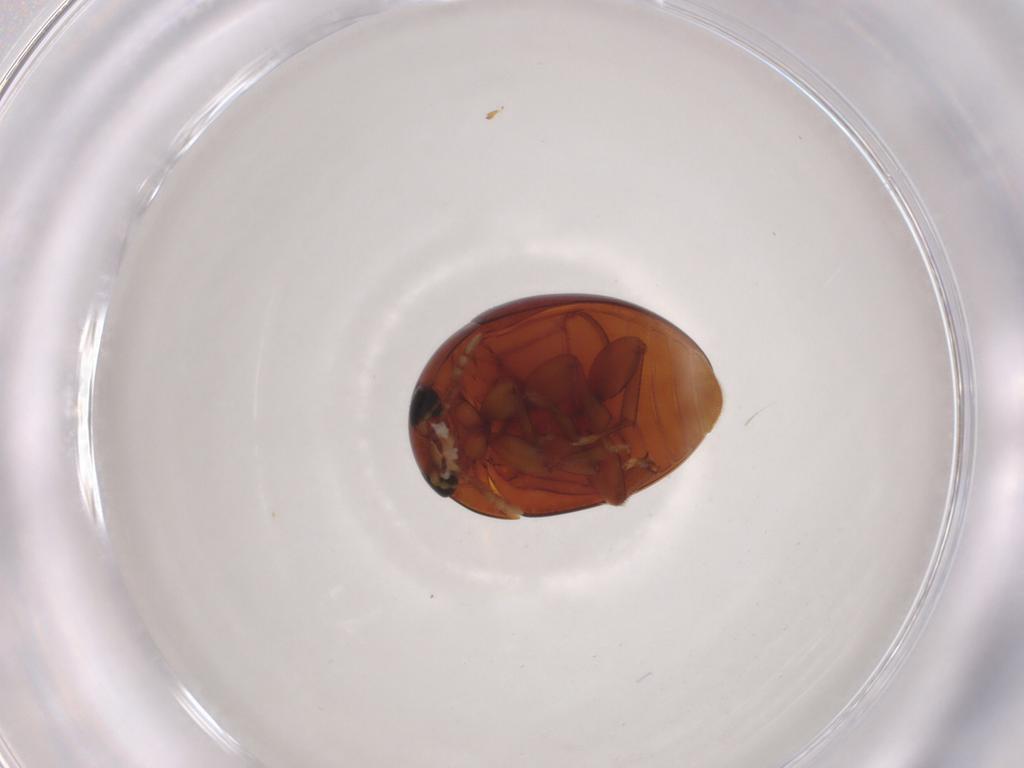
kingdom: Animalia
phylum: Arthropoda
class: Insecta
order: Coleoptera
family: Phalacridae
